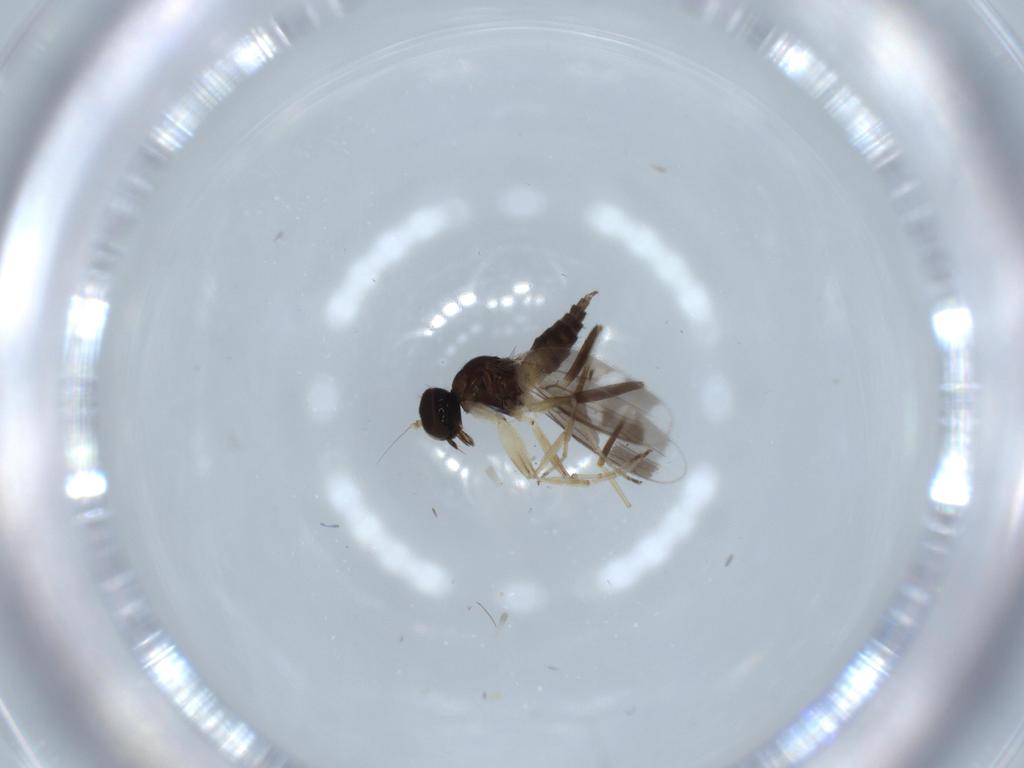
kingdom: Animalia
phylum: Arthropoda
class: Insecta
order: Diptera
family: Hybotidae
